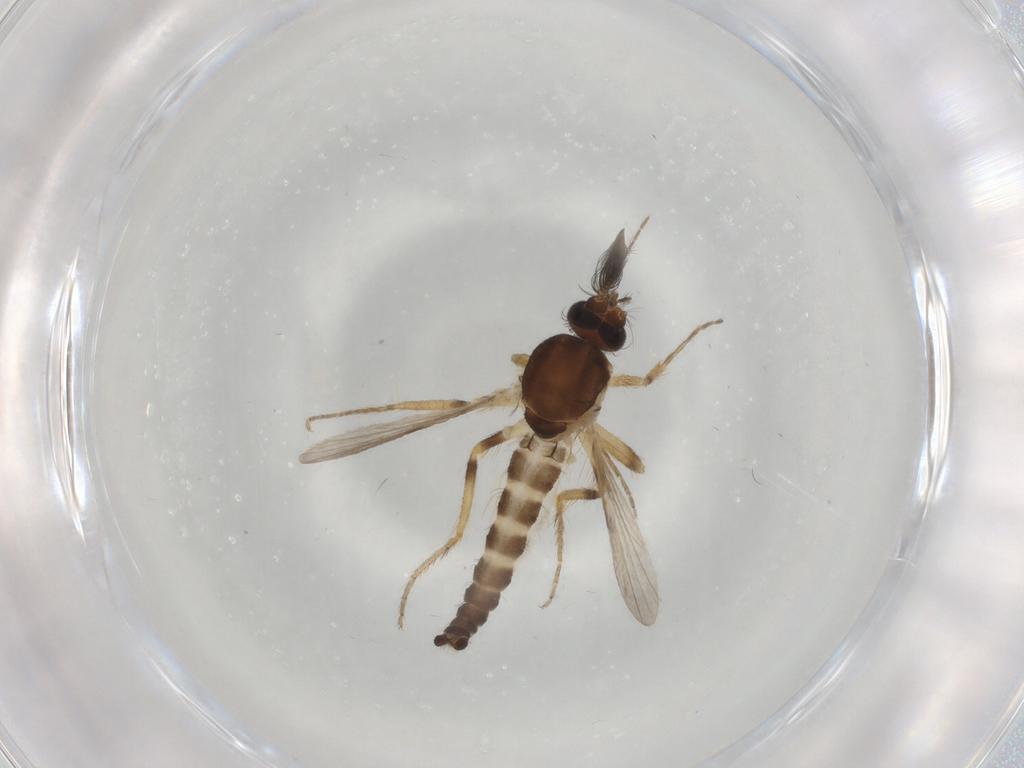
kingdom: Animalia
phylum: Arthropoda
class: Insecta
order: Diptera
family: Ceratopogonidae
